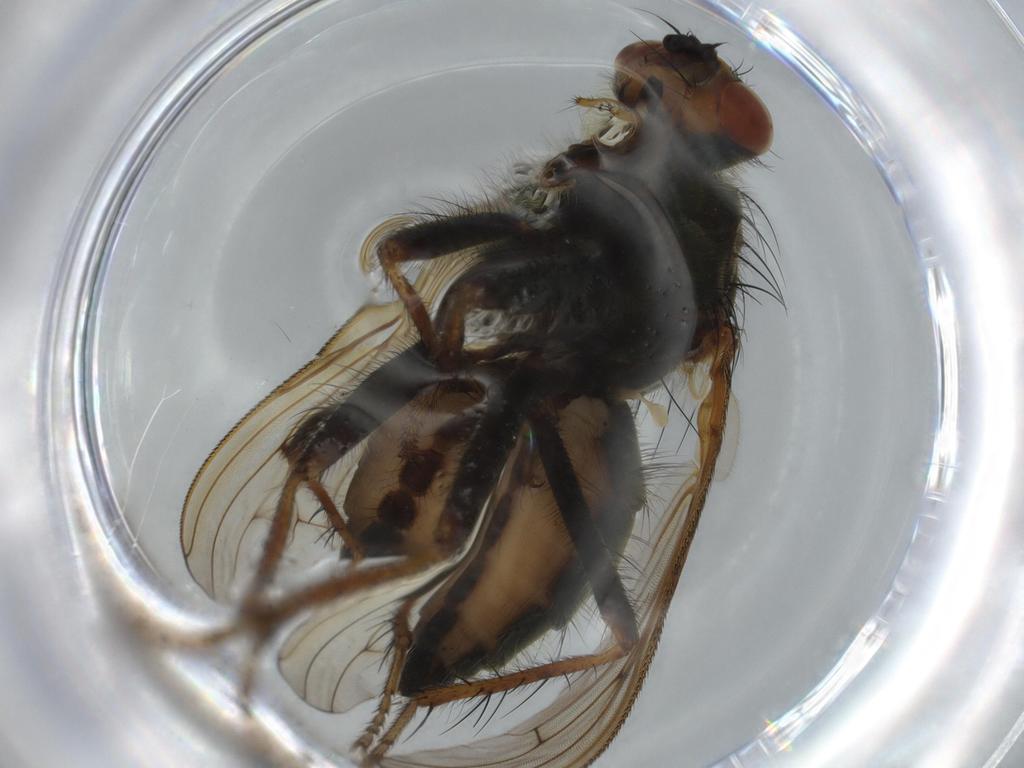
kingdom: Animalia
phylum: Arthropoda
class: Insecta
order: Diptera
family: Scathophagidae
